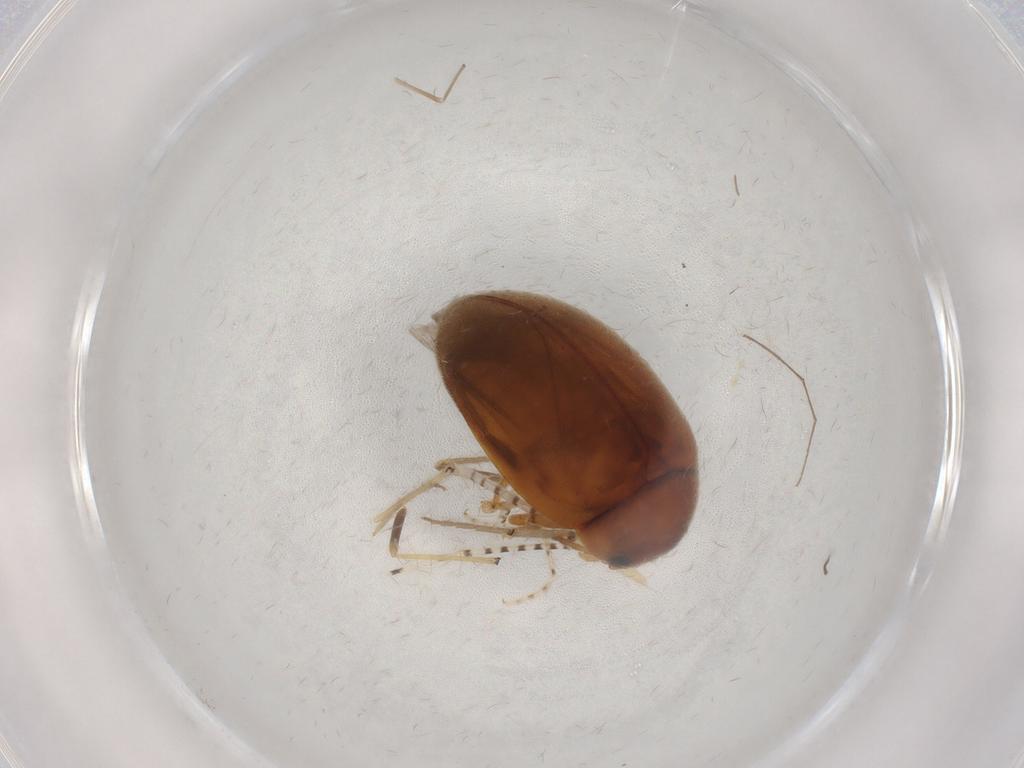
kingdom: Animalia
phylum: Arthropoda
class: Insecta
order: Coleoptera
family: Scirtidae
